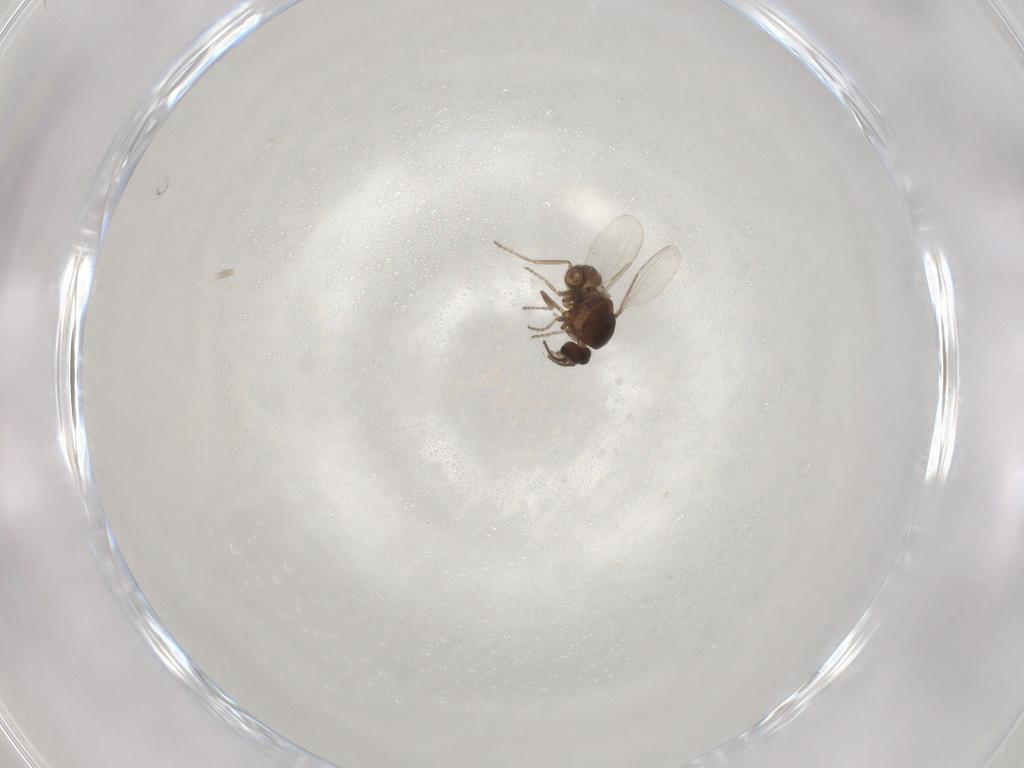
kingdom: Animalia
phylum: Arthropoda
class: Insecta
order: Diptera
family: Ceratopogonidae
